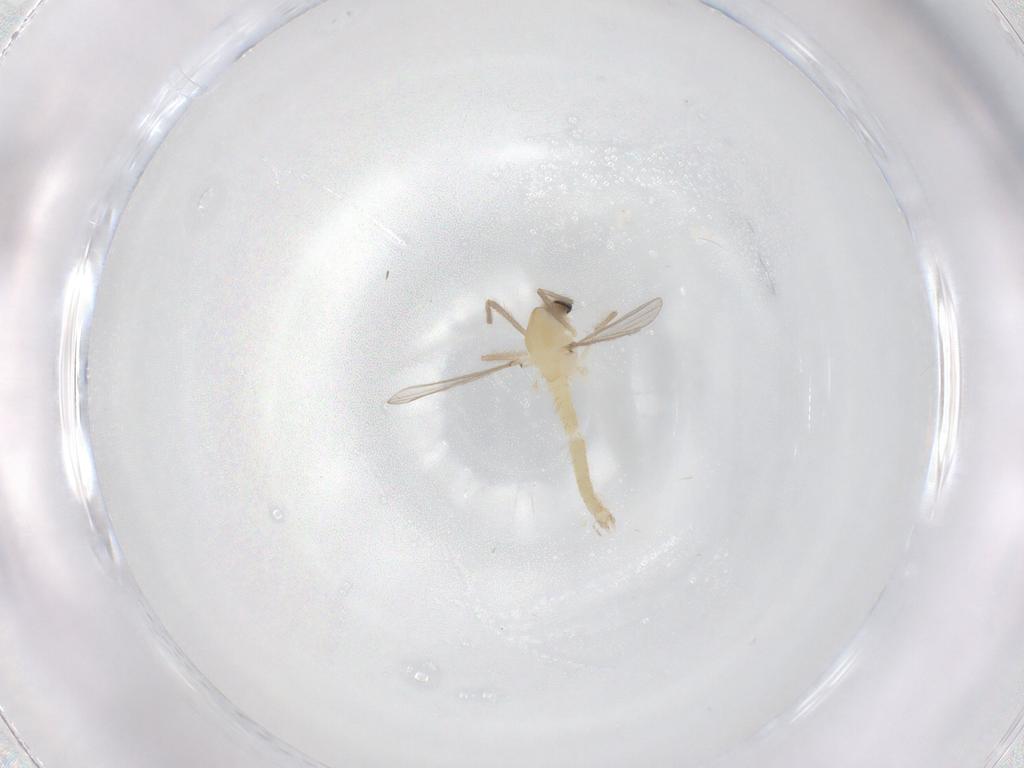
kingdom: Animalia
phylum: Arthropoda
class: Insecta
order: Diptera
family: Chironomidae
